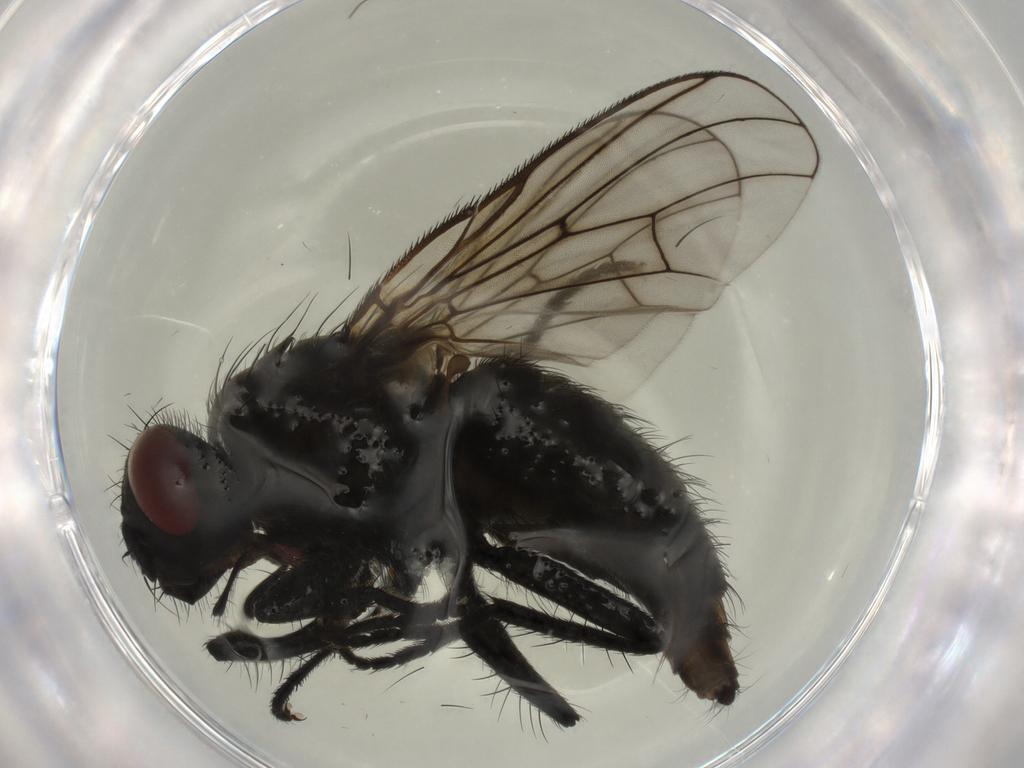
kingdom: Animalia
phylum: Arthropoda
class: Insecta
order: Diptera
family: Muscidae
